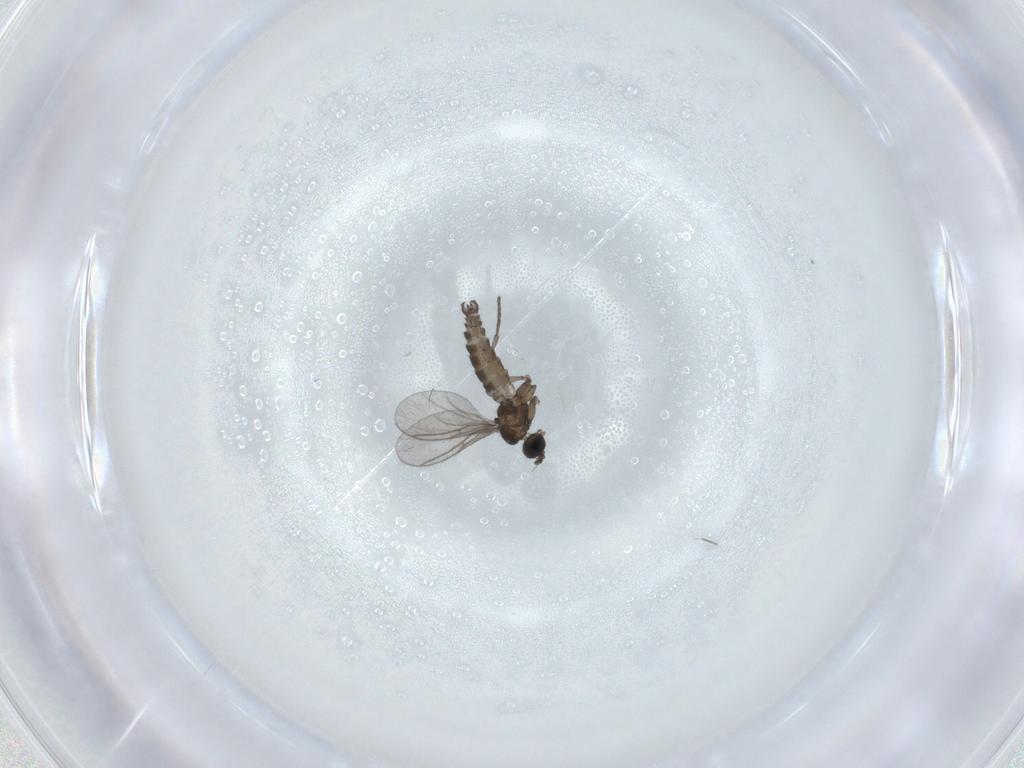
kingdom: Animalia
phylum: Arthropoda
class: Insecta
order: Diptera
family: Chironomidae
